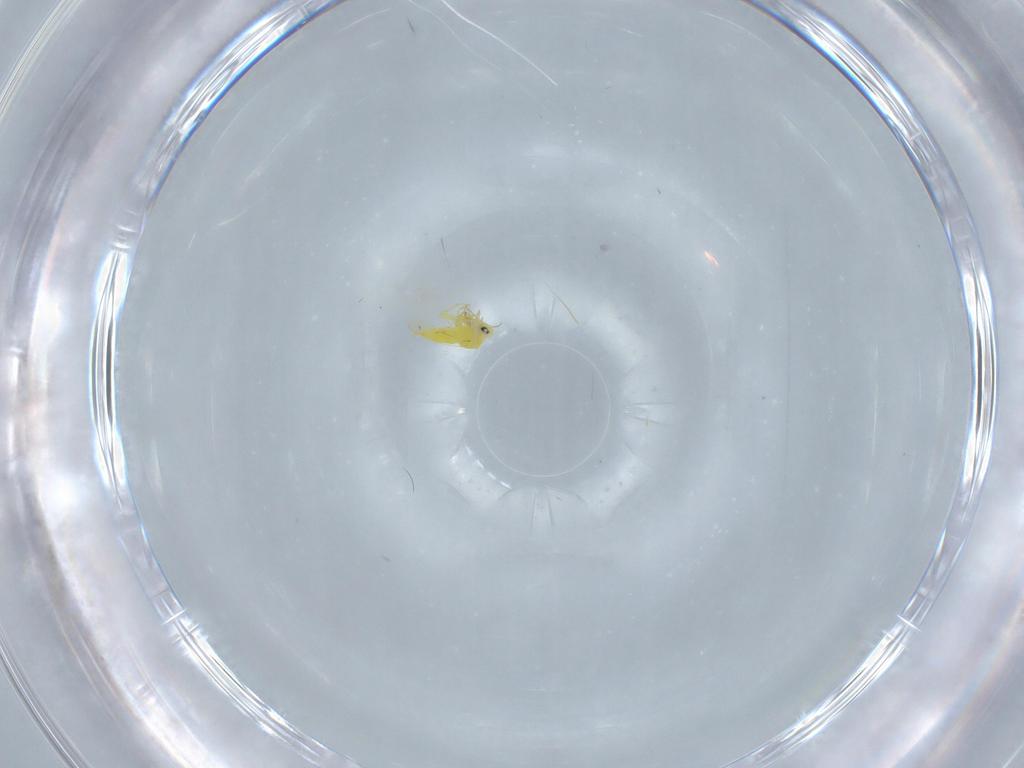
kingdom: Animalia
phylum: Arthropoda
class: Insecta
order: Hemiptera
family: Aleyrodidae
